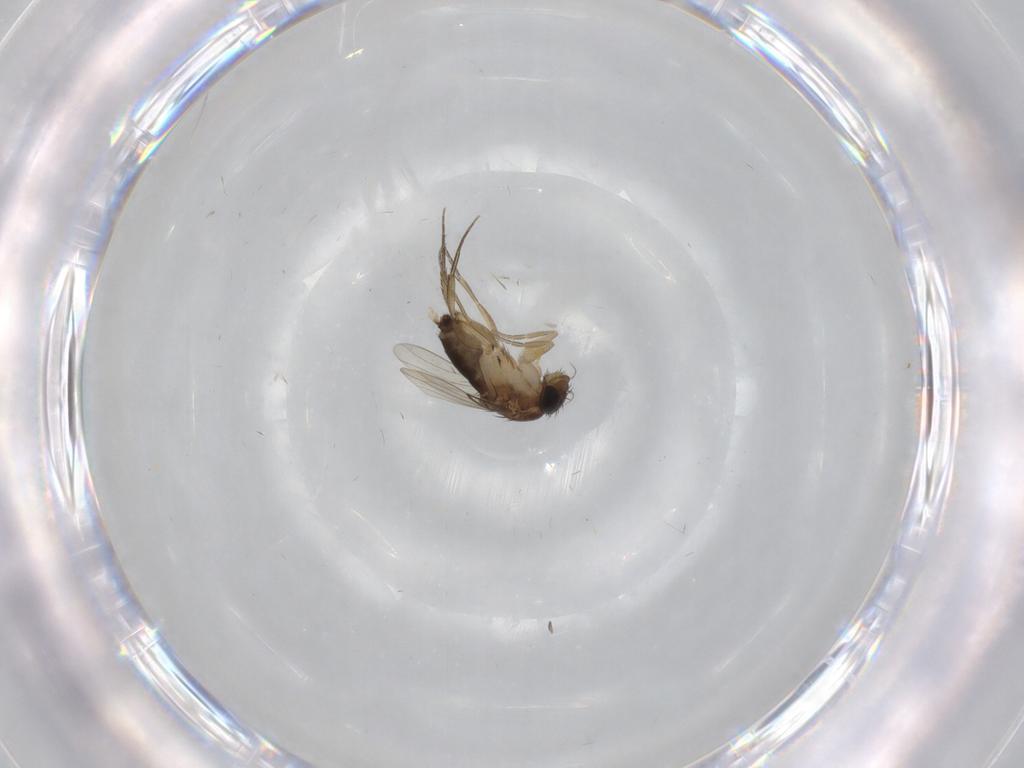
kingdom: Animalia
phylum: Arthropoda
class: Insecta
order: Diptera
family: Phoridae
